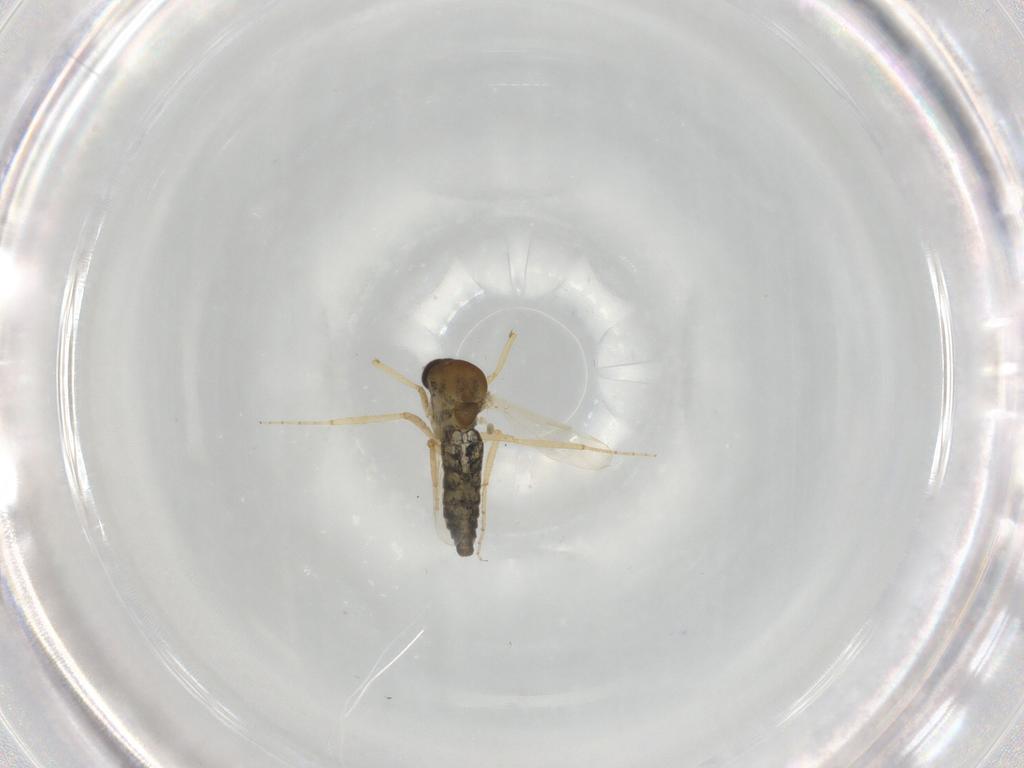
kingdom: Animalia
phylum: Arthropoda
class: Insecta
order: Diptera
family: Ceratopogonidae
